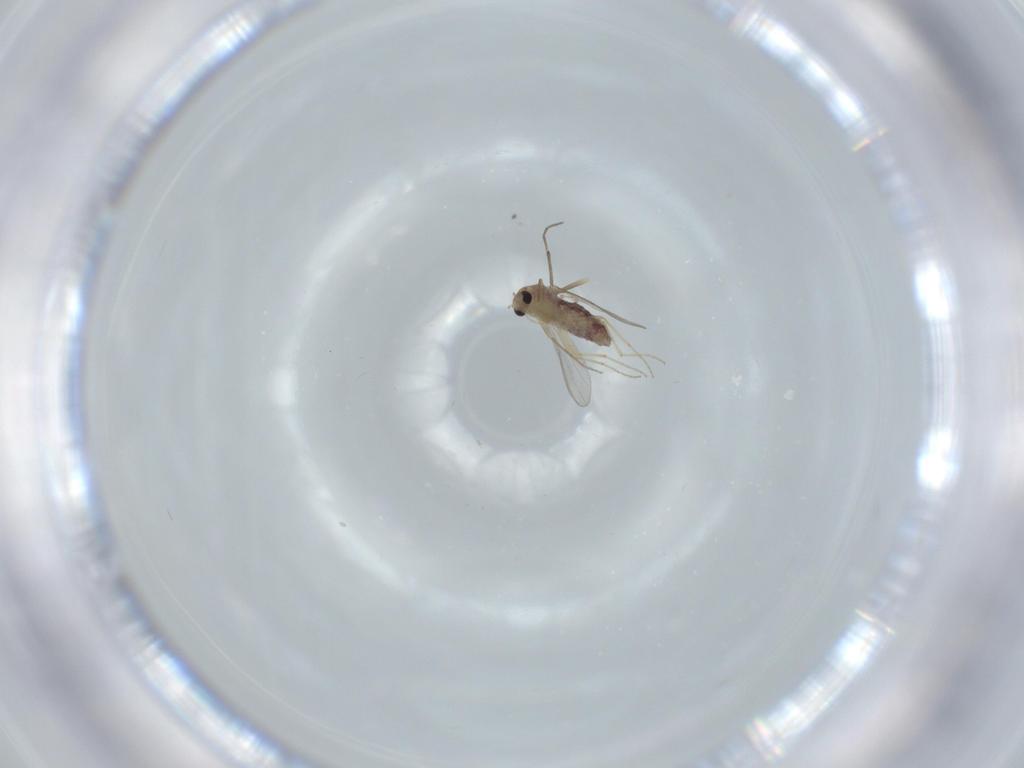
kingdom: Animalia
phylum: Arthropoda
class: Insecta
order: Diptera
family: Chironomidae
